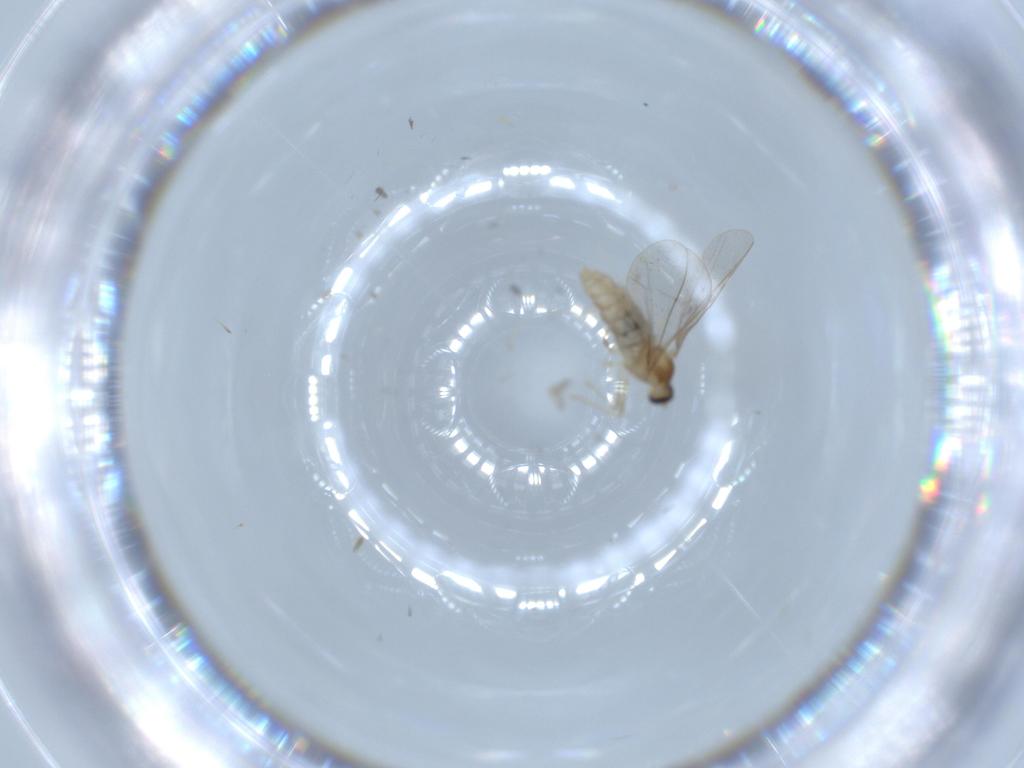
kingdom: Animalia
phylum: Arthropoda
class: Insecta
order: Diptera
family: Cecidomyiidae
